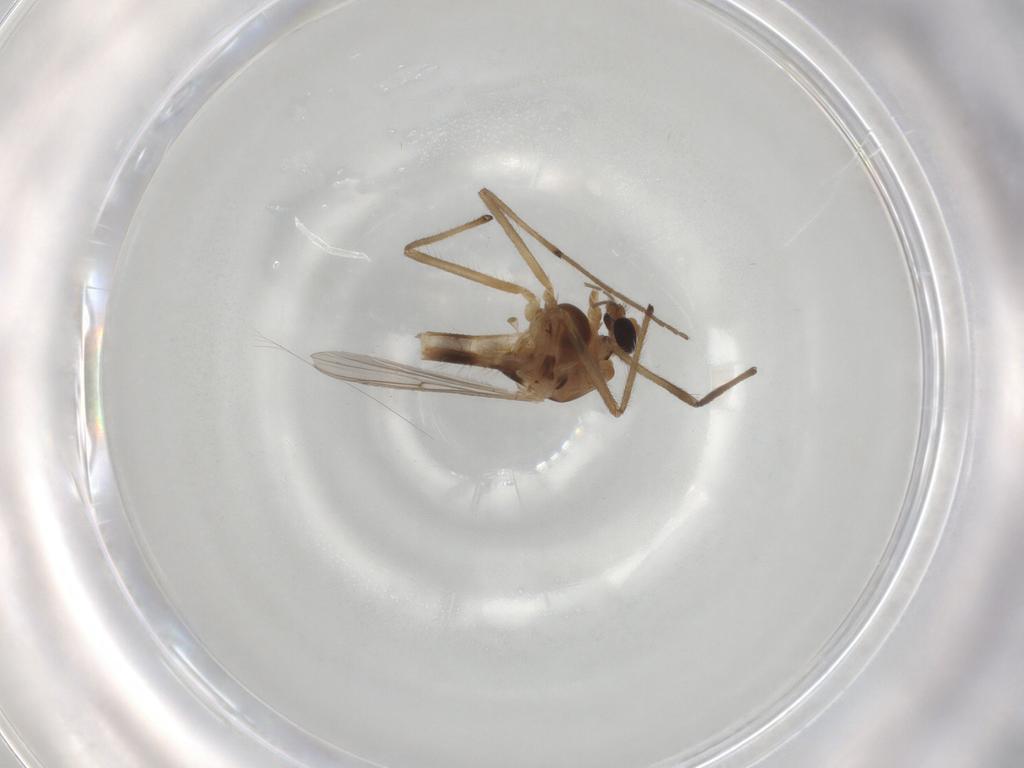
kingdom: Animalia
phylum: Arthropoda
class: Insecta
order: Diptera
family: Chironomidae
